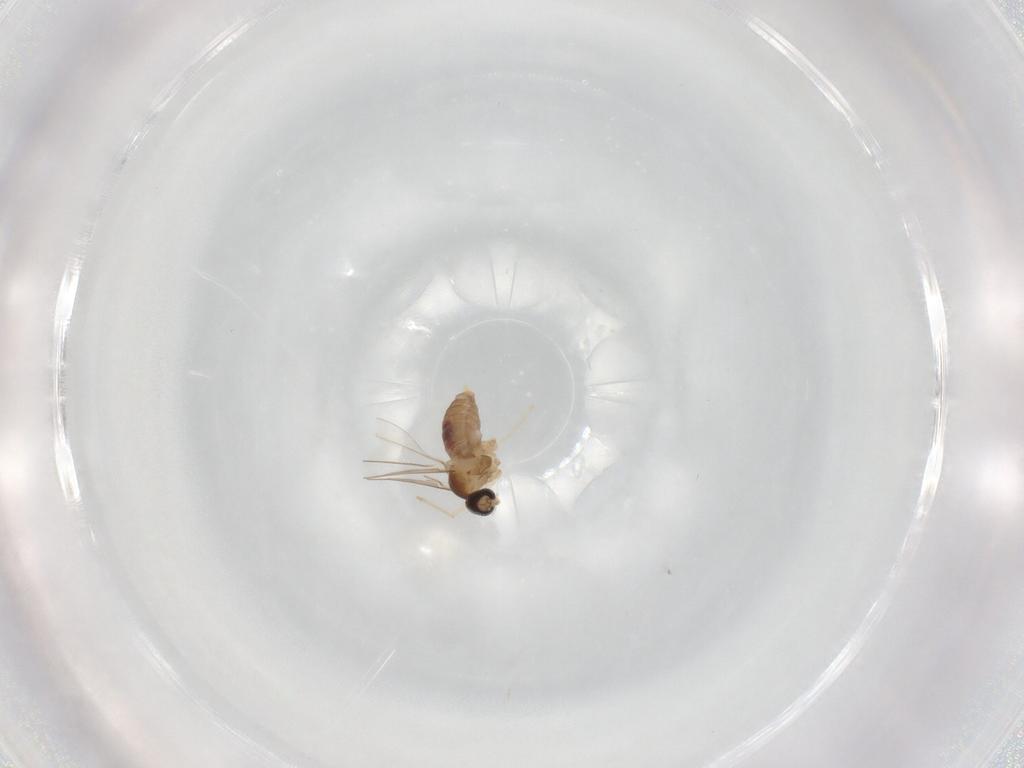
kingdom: Animalia
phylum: Arthropoda
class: Insecta
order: Diptera
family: Cecidomyiidae
